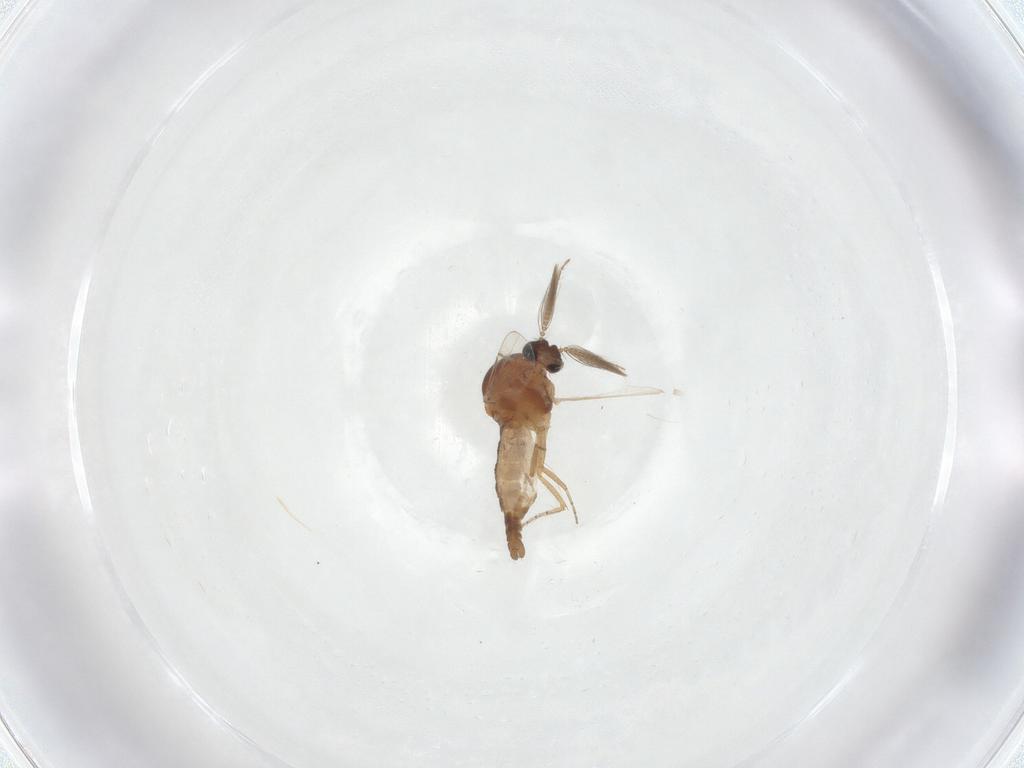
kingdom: Animalia
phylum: Arthropoda
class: Insecta
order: Diptera
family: Ceratopogonidae
